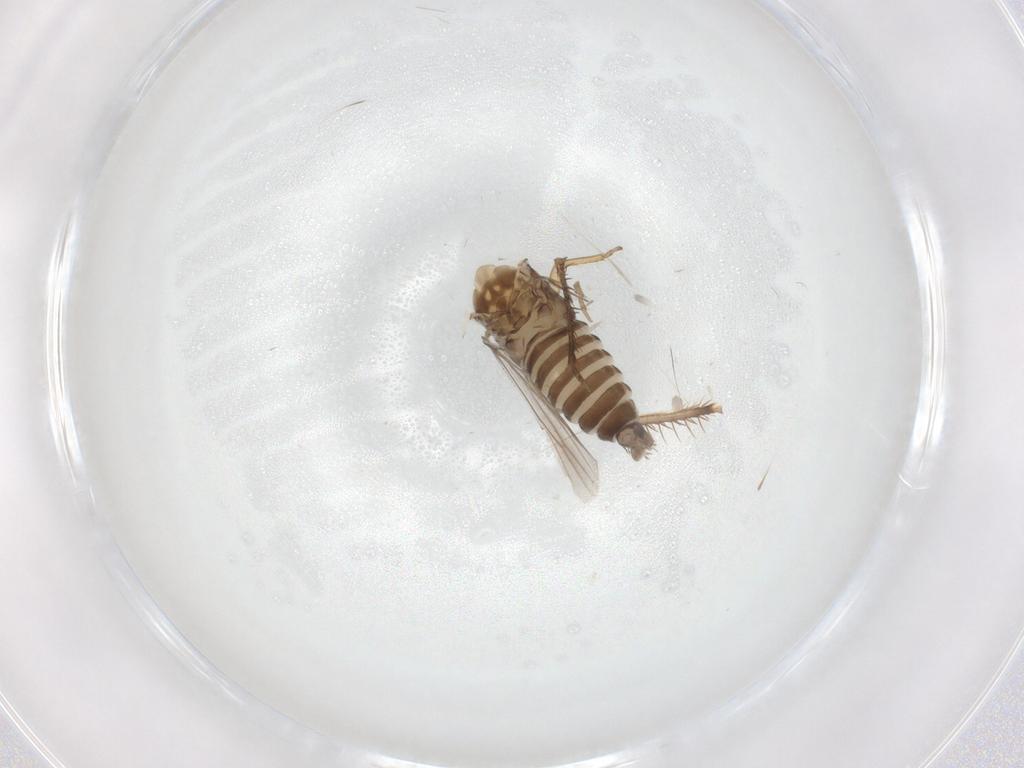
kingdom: Animalia
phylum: Arthropoda
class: Insecta
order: Hemiptera
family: Cicadellidae
